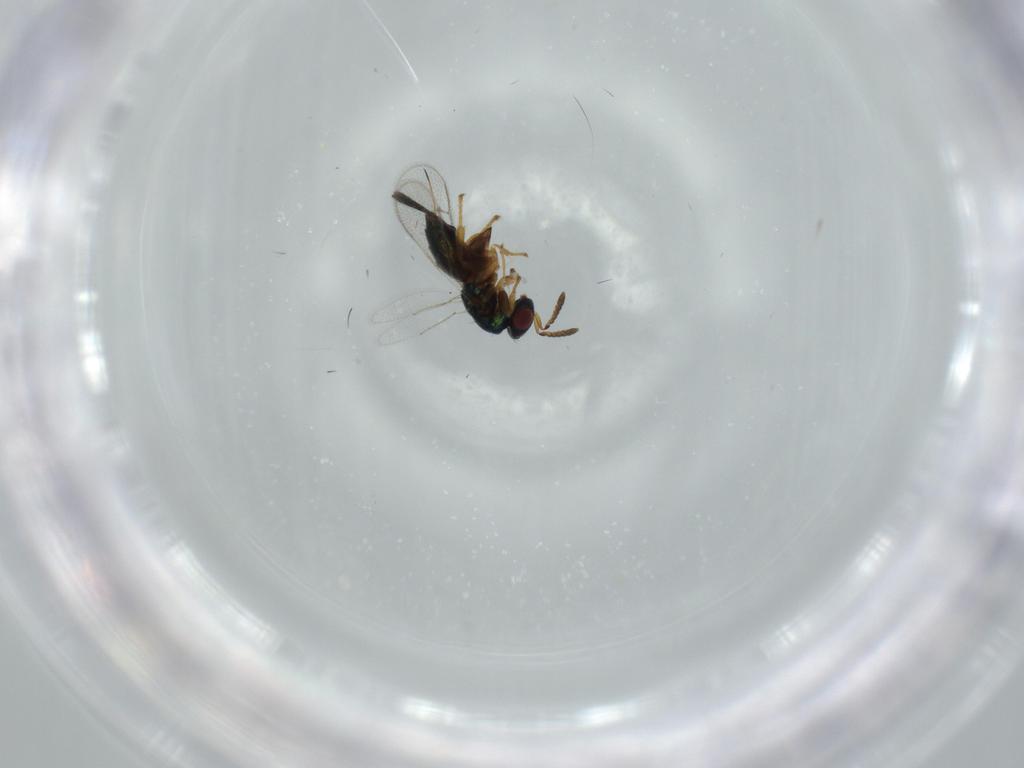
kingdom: Animalia
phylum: Arthropoda
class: Insecta
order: Hymenoptera
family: Torymidae
